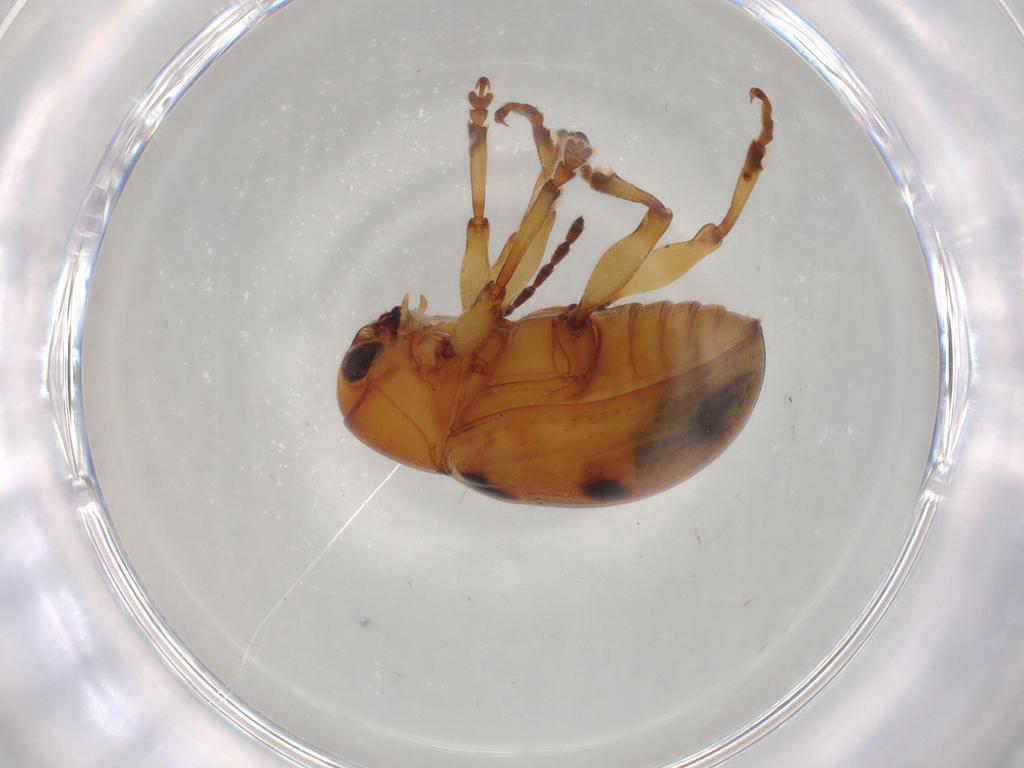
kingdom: Animalia
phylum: Arthropoda
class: Insecta
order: Coleoptera
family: Chrysomelidae
